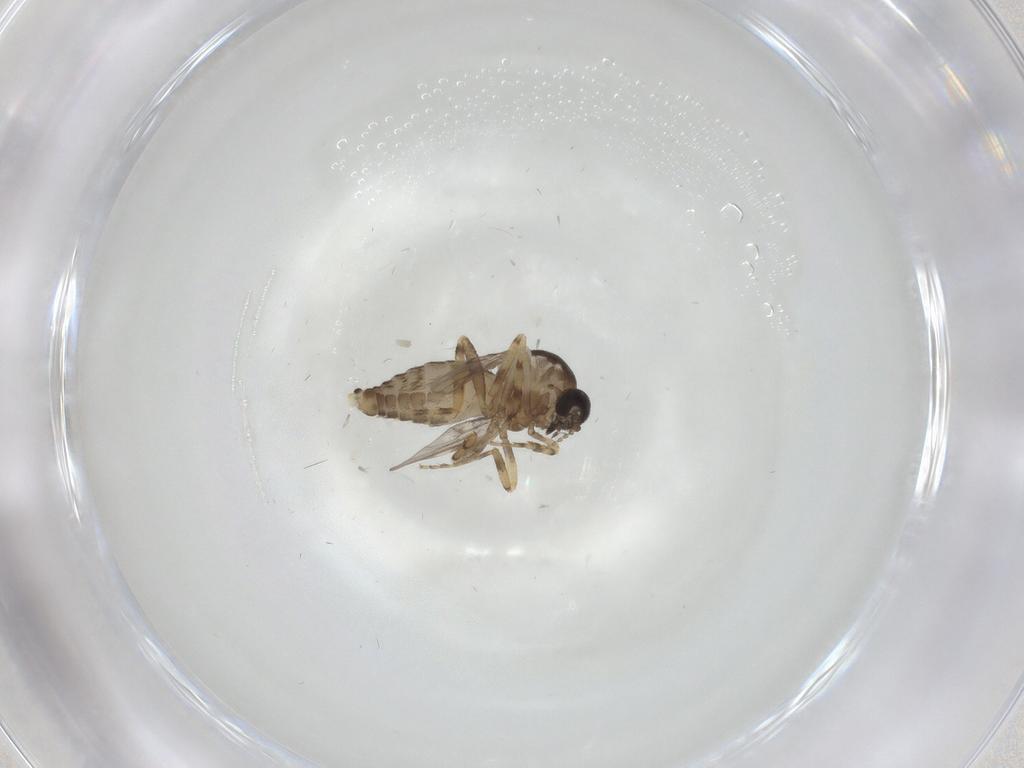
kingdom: Animalia
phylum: Arthropoda
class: Insecta
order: Diptera
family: Ceratopogonidae
